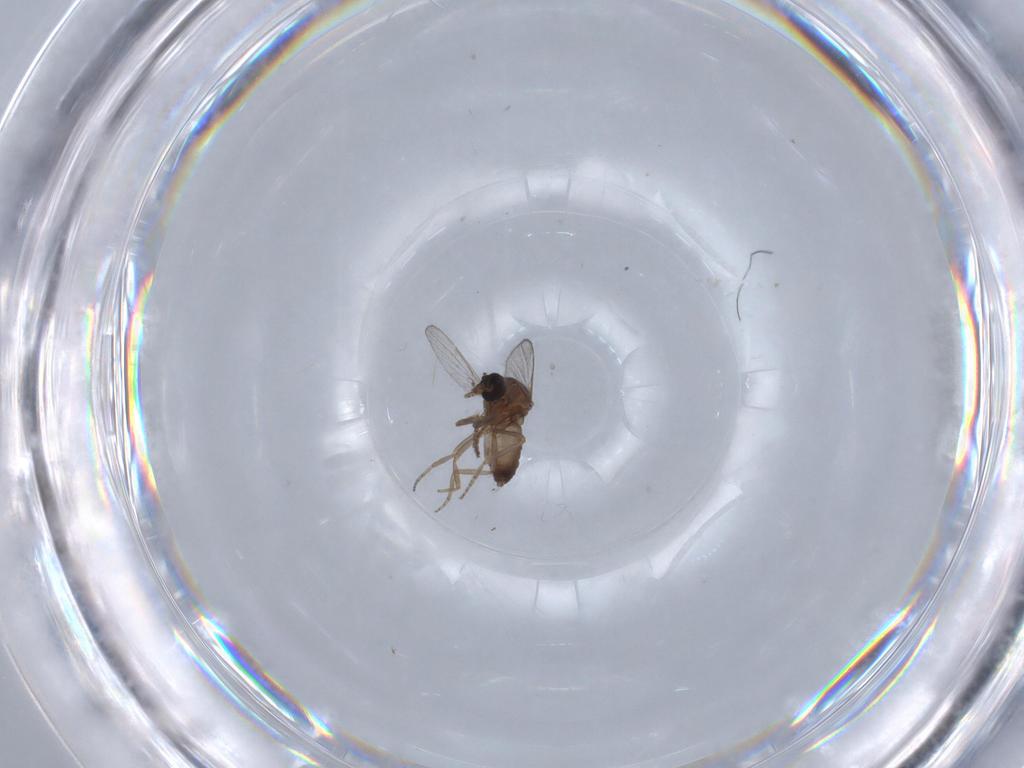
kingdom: Animalia
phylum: Arthropoda
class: Insecta
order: Diptera
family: Ceratopogonidae
